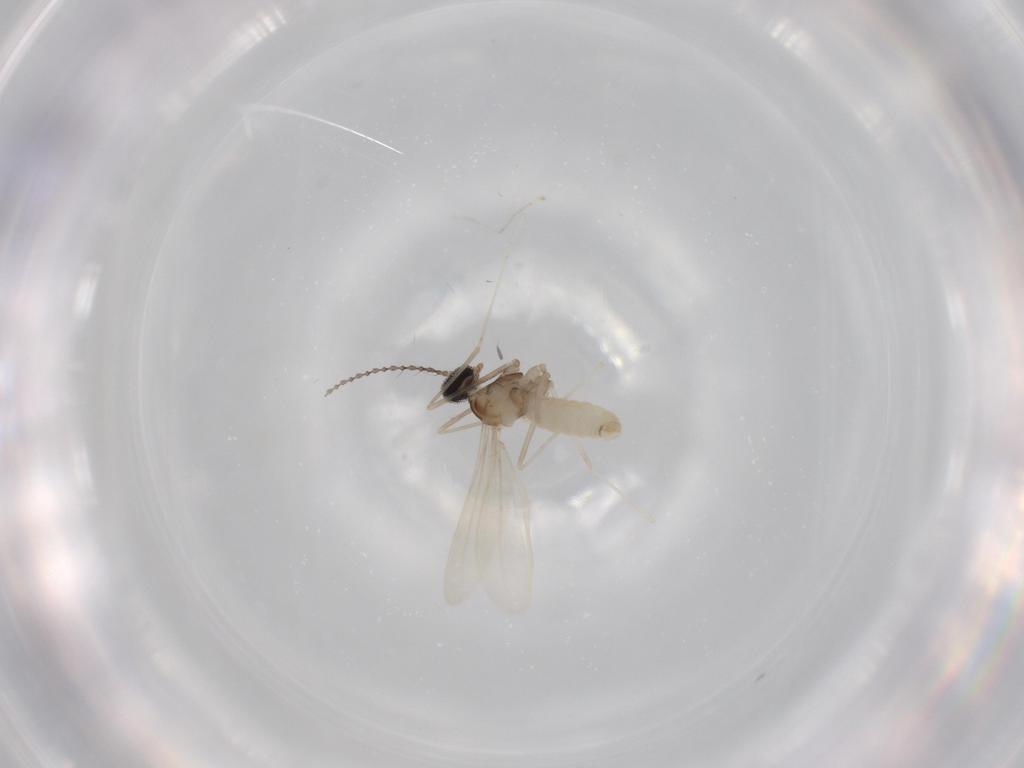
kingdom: Animalia
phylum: Arthropoda
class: Insecta
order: Diptera
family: Cecidomyiidae
